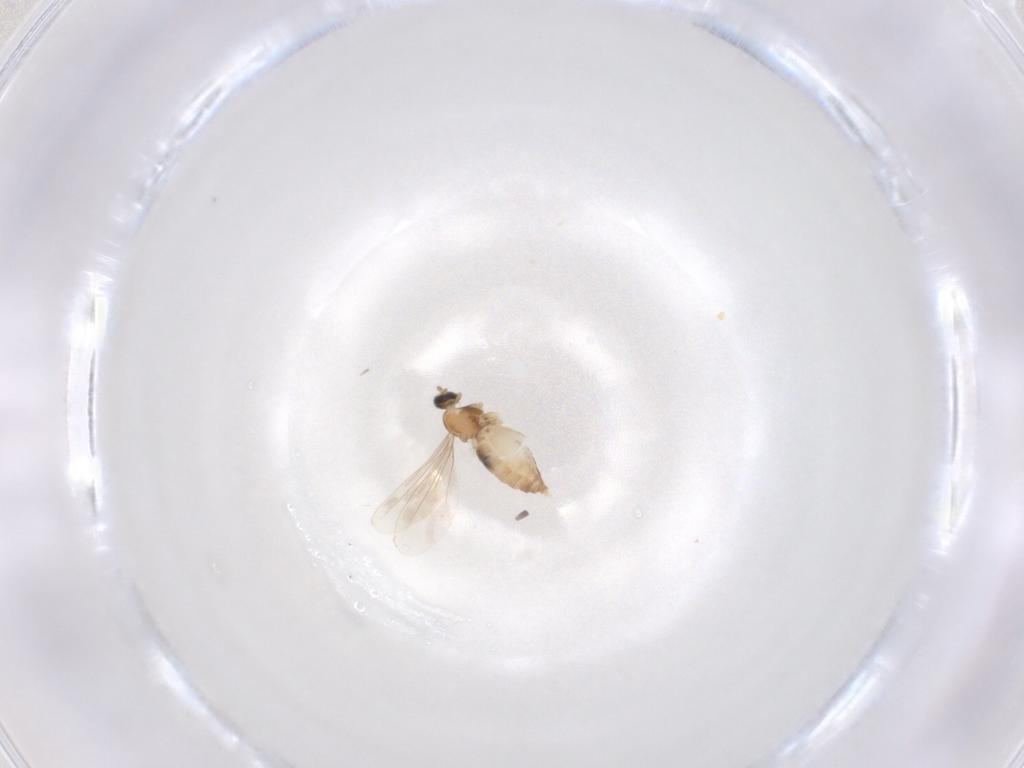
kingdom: Animalia
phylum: Arthropoda
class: Insecta
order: Diptera
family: Cecidomyiidae
